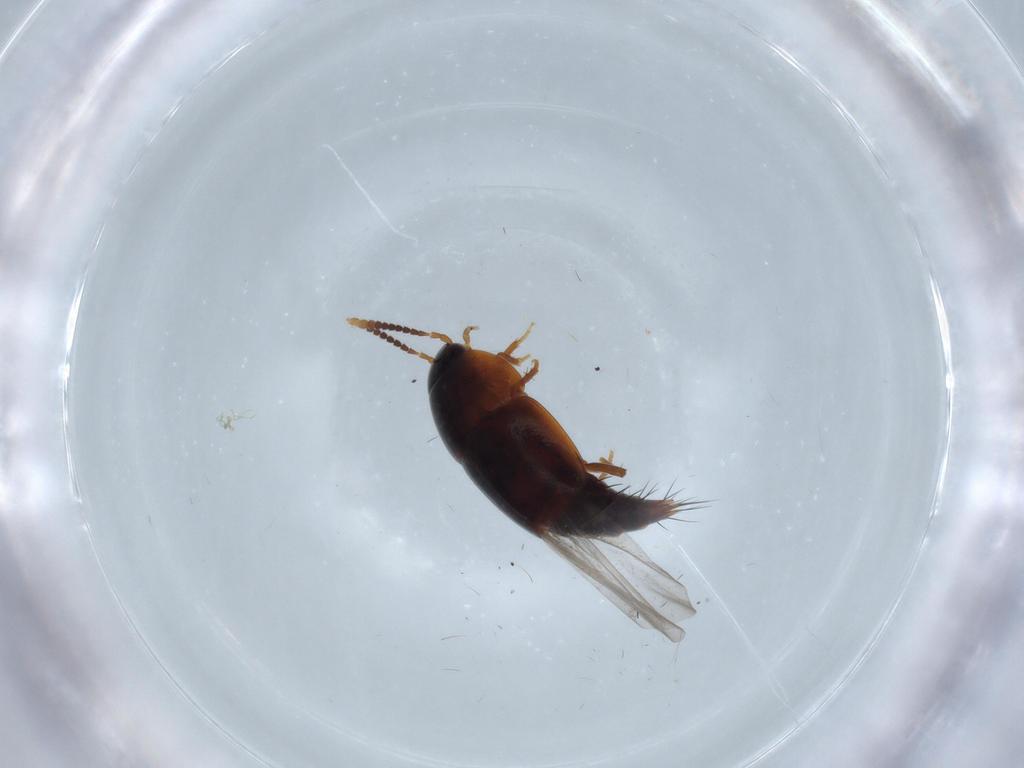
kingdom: Animalia
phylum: Arthropoda
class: Insecta
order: Coleoptera
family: Staphylinidae
